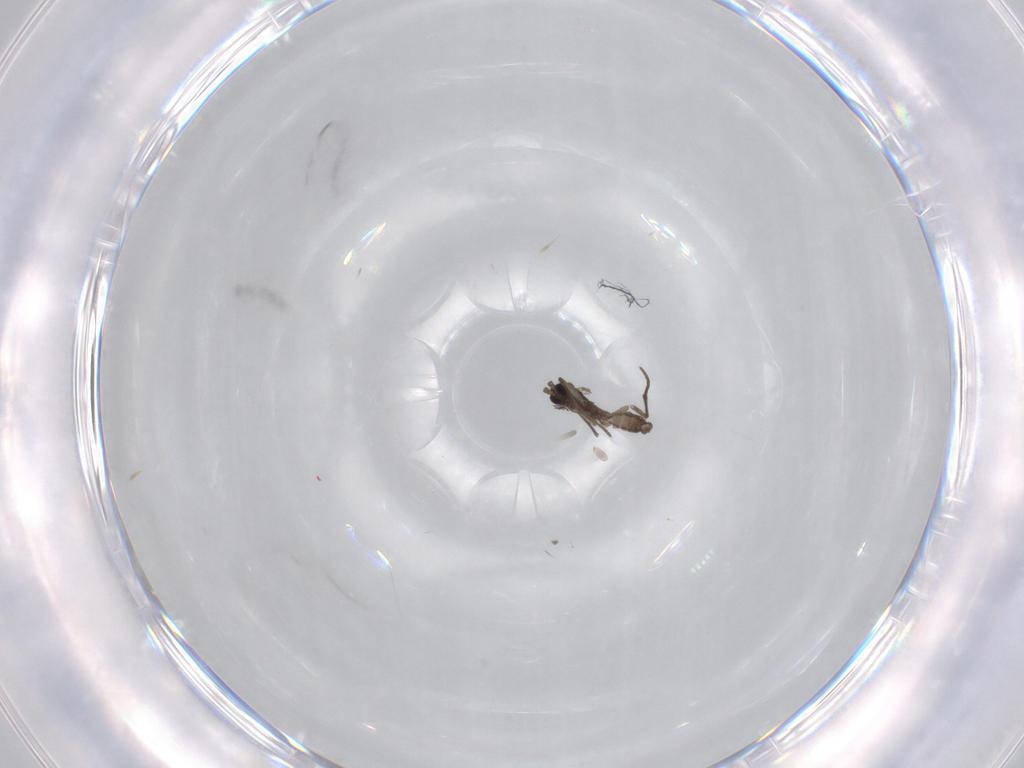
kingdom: Animalia
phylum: Arthropoda
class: Insecta
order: Diptera
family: Sciaridae
